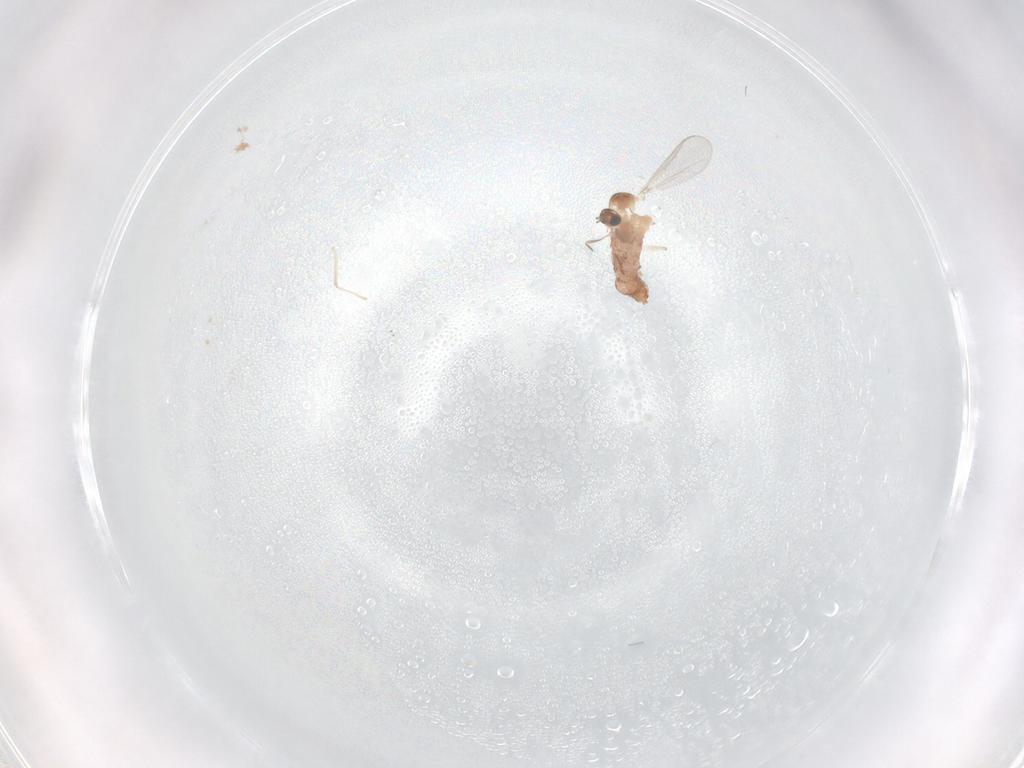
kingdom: Animalia
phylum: Arthropoda
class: Insecta
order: Diptera
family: Chironomidae
